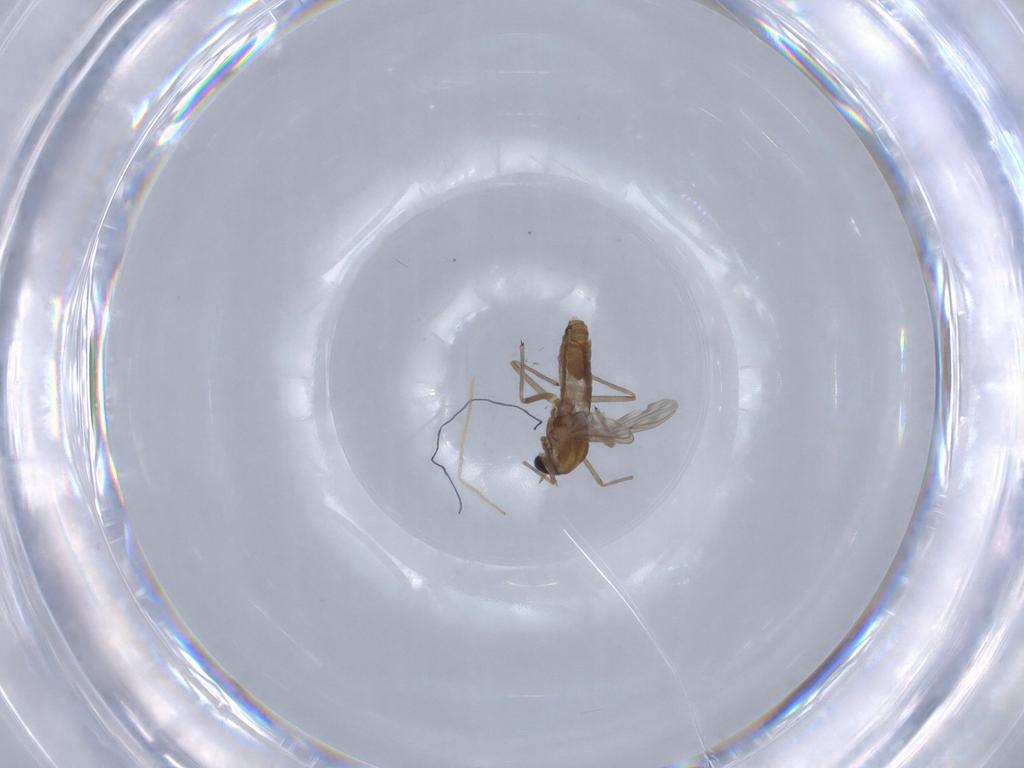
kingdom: Animalia
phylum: Arthropoda
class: Insecta
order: Diptera
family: Chironomidae
